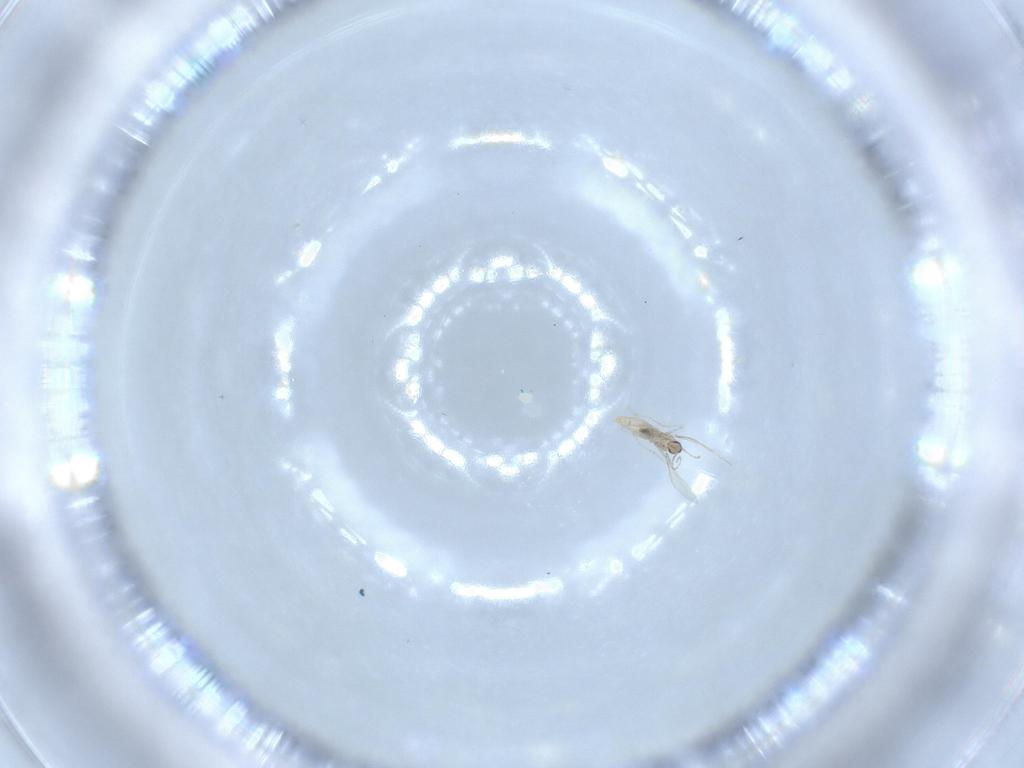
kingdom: Animalia
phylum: Arthropoda
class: Insecta
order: Diptera
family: Cecidomyiidae
